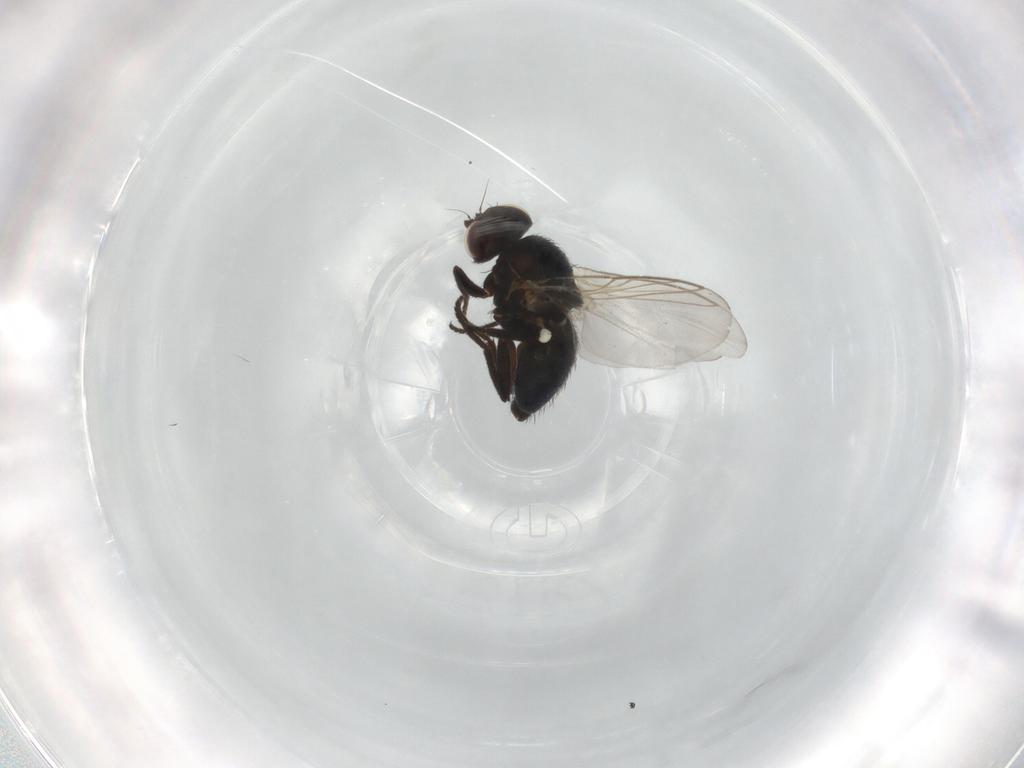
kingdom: Animalia
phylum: Arthropoda
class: Insecta
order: Diptera
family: Agromyzidae
